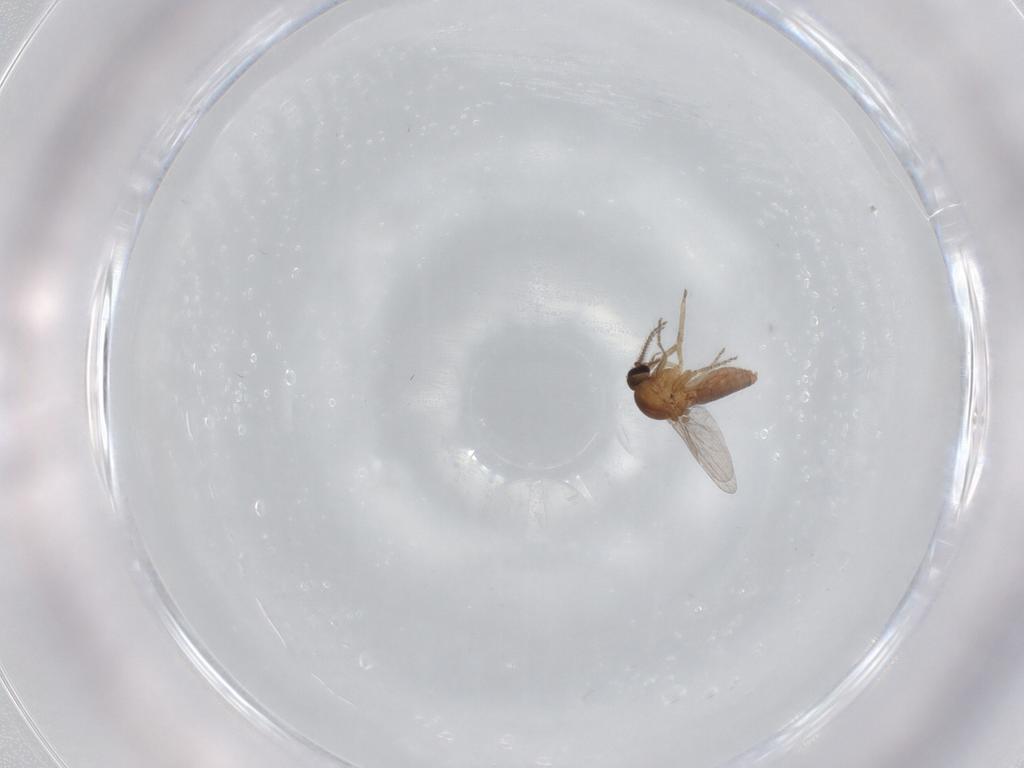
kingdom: Animalia
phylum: Arthropoda
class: Insecta
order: Diptera
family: Ceratopogonidae
